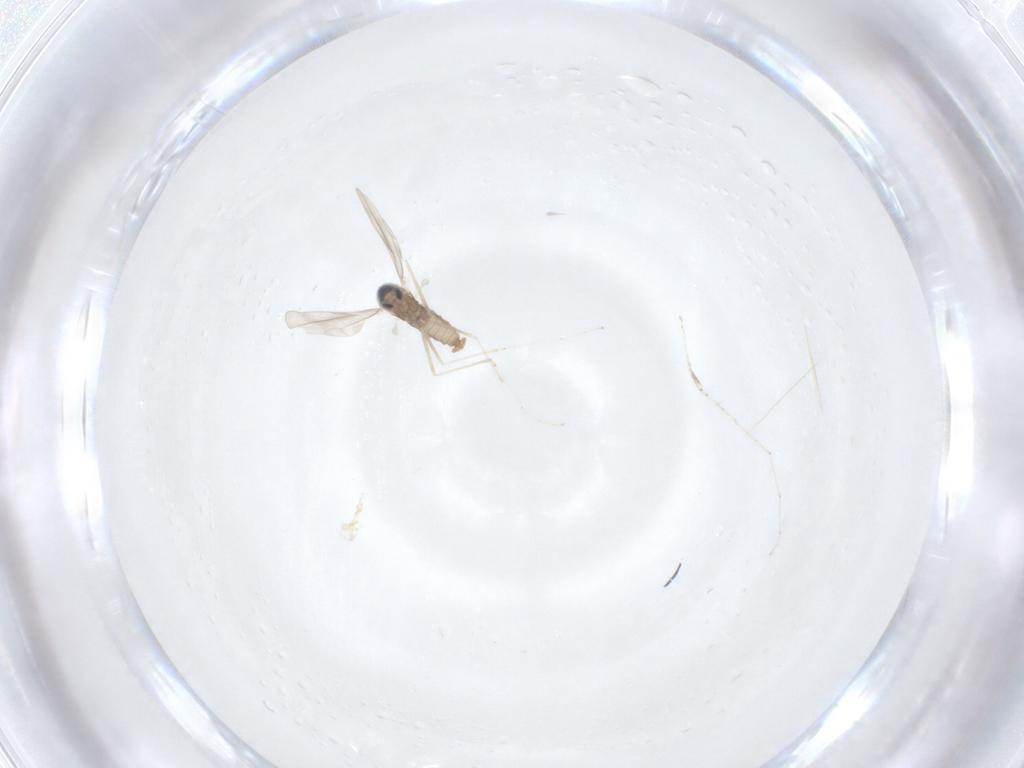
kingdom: Animalia
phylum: Arthropoda
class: Insecta
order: Diptera
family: Cecidomyiidae
